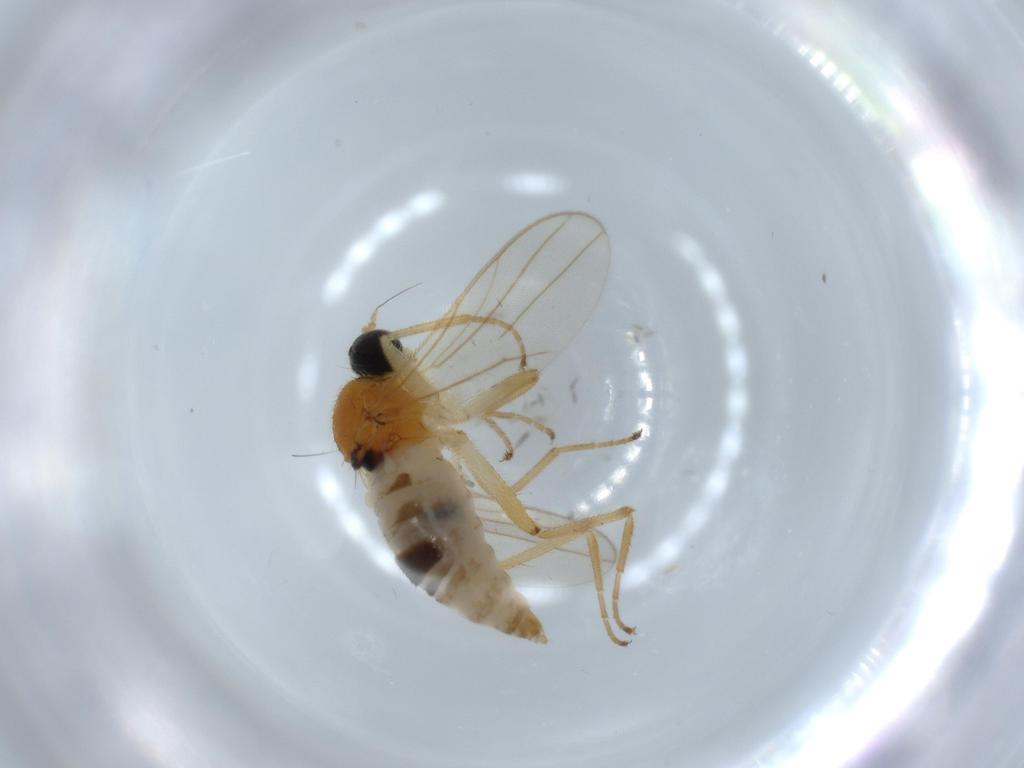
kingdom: Animalia
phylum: Arthropoda
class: Insecta
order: Diptera
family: Hybotidae
